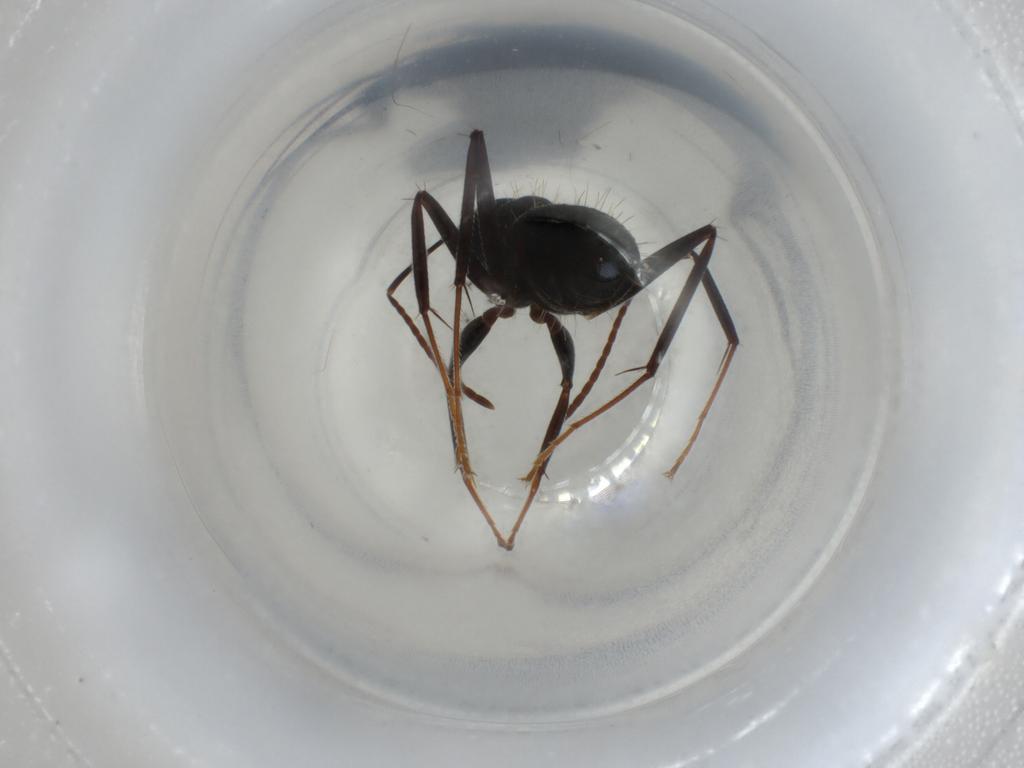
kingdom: Animalia
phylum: Arthropoda
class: Insecta
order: Hymenoptera
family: Formicidae
